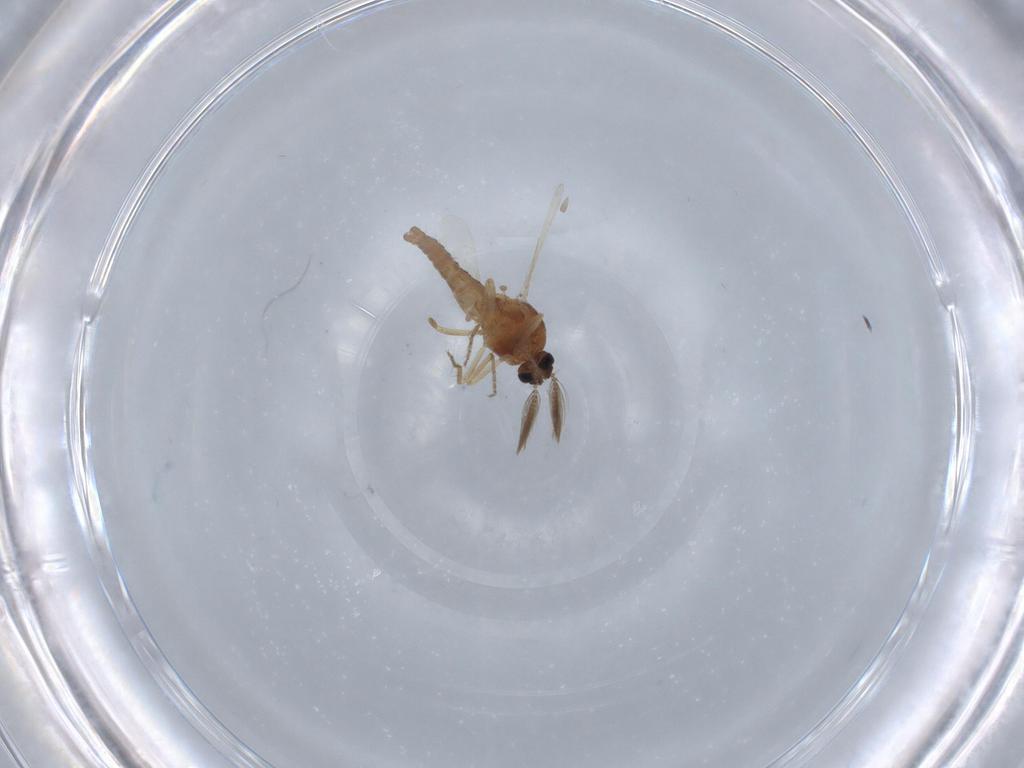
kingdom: Animalia
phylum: Arthropoda
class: Insecta
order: Diptera
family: Ceratopogonidae
